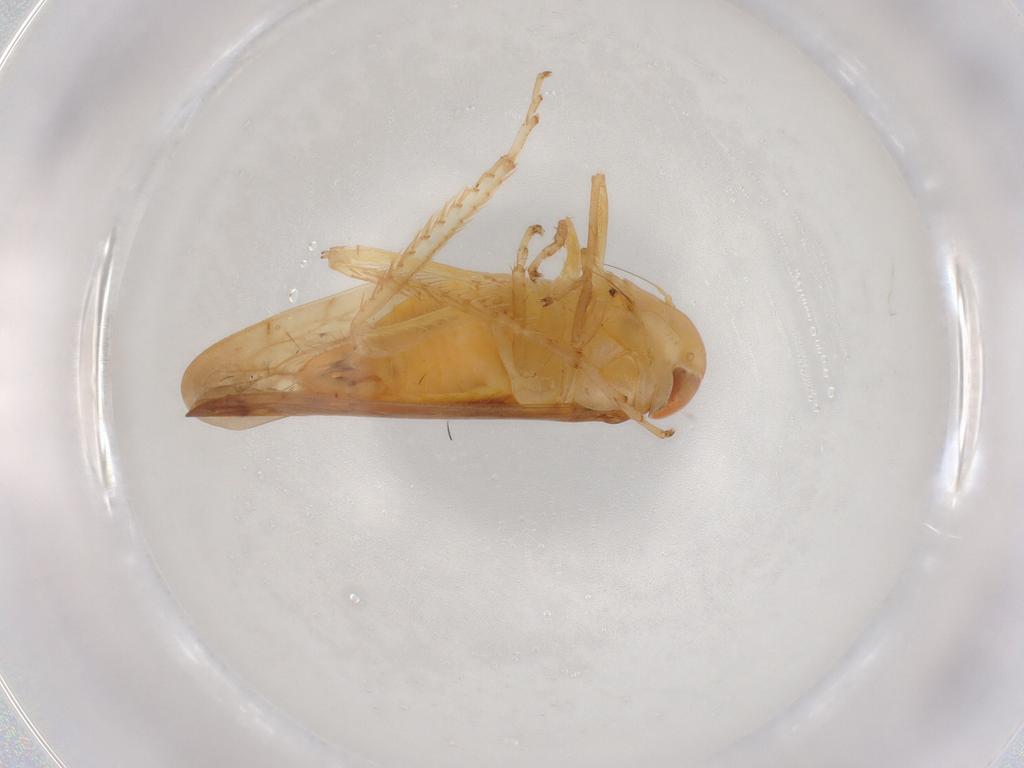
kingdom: Animalia
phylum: Arthropoda
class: Insecta
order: Hemiptera
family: Cicadellidae
